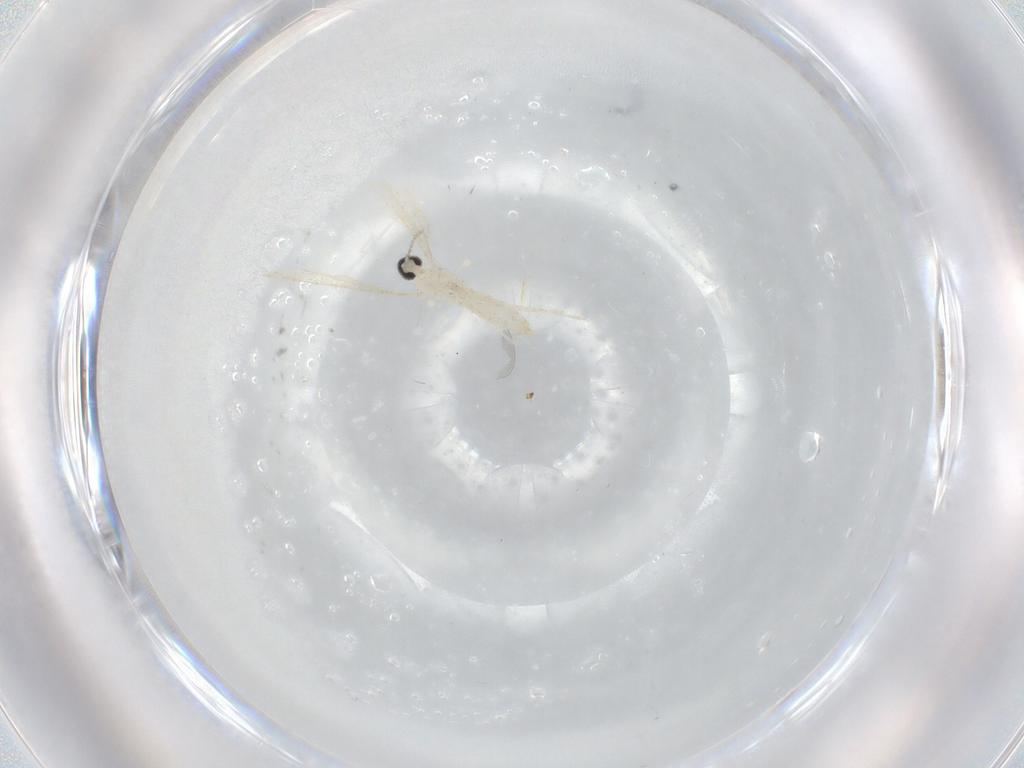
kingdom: Animalia
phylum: Arthropoda
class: Insecta
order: Diptera
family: Cecidomyiidae
